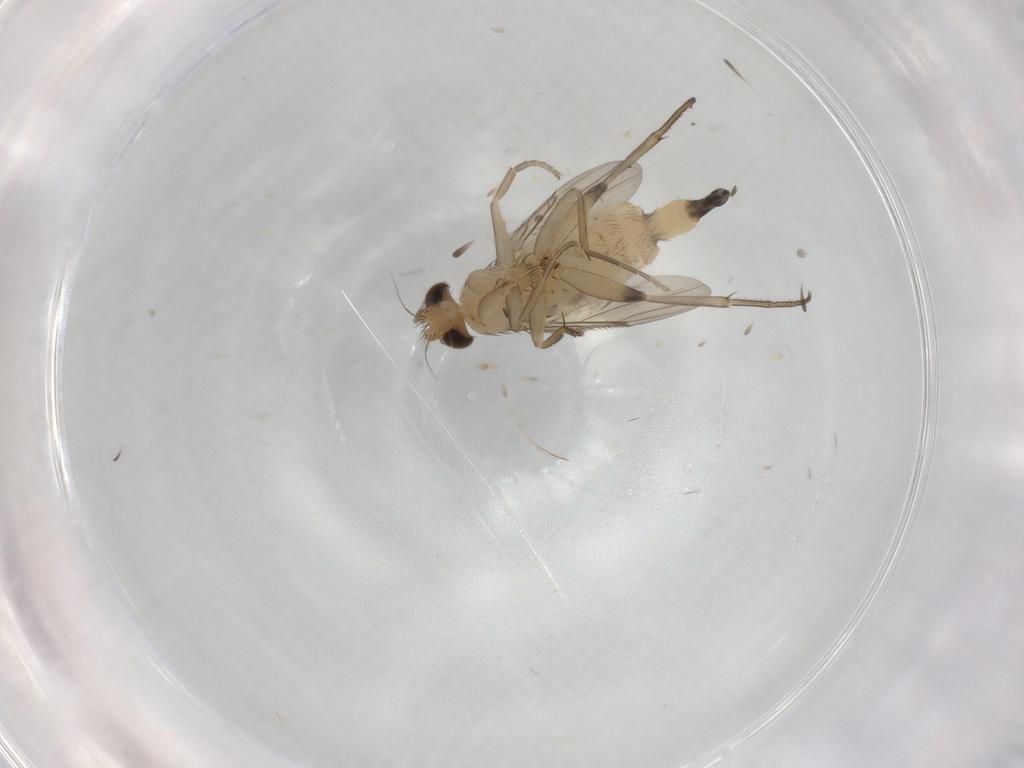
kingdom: Animalia
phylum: Arthropoda
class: Insecta
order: Diptera
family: Phoridae
